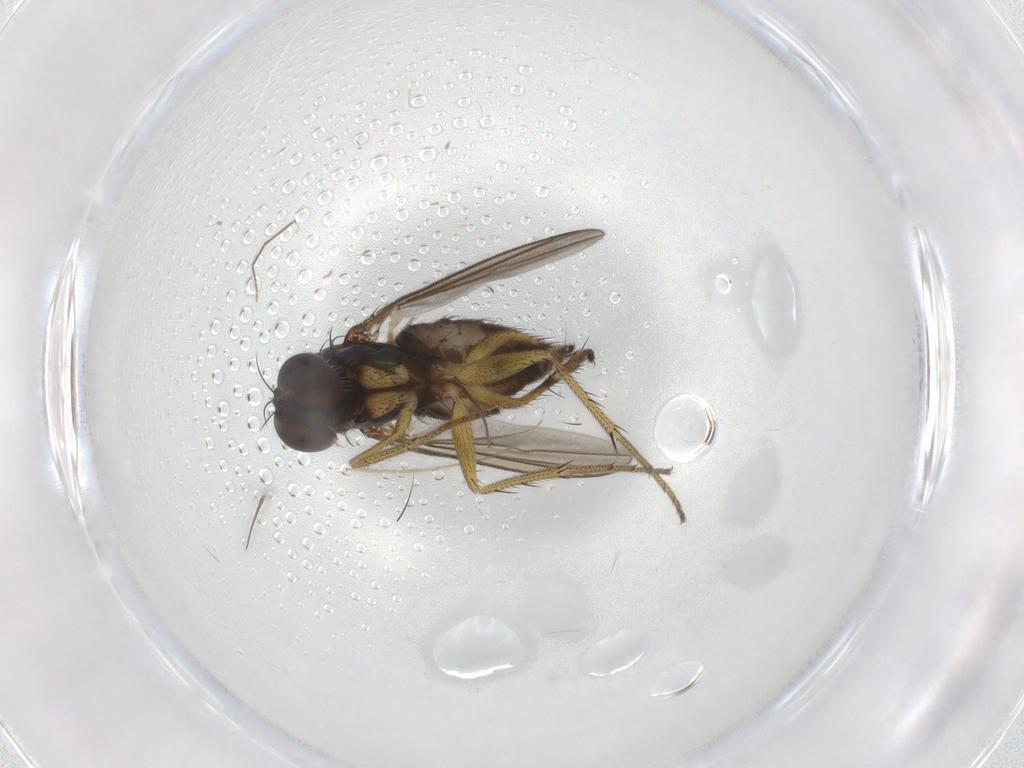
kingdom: Animalia
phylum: Arthropoda
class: Insecta
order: Diptera
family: Dolichopodidae
